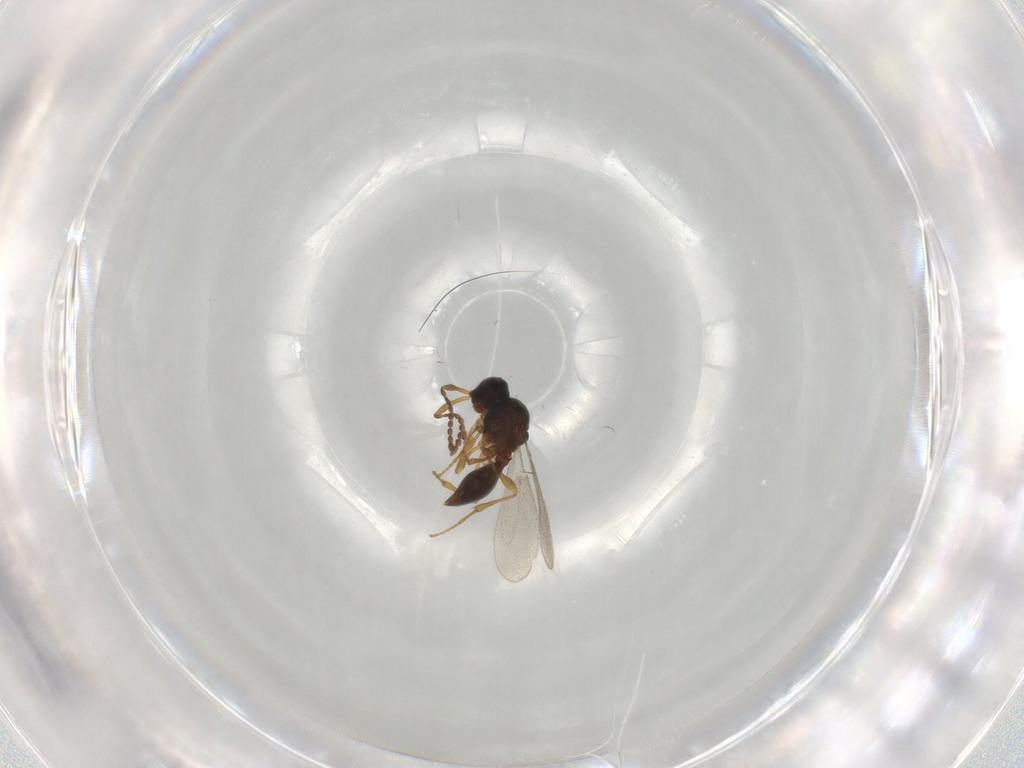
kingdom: Animalia
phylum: Arthropoda
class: Insecta
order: Diptera
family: Mythicomyiidae
